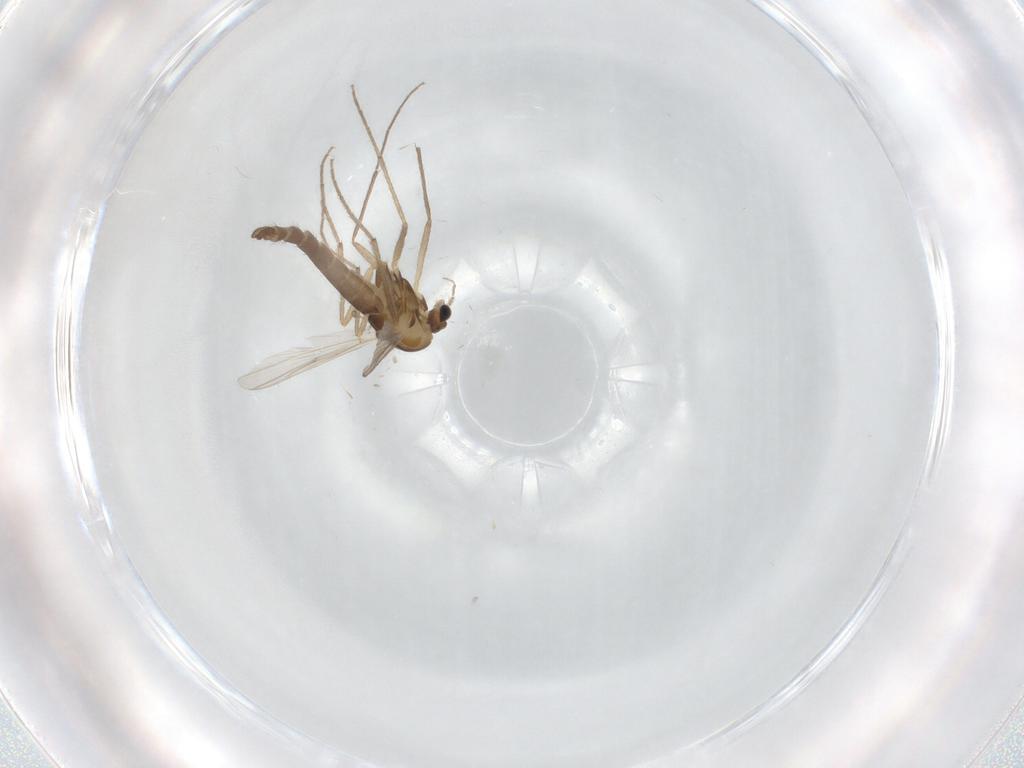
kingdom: Animalia
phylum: Arthropoda
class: Insecta
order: Diptera
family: Chironomidae
